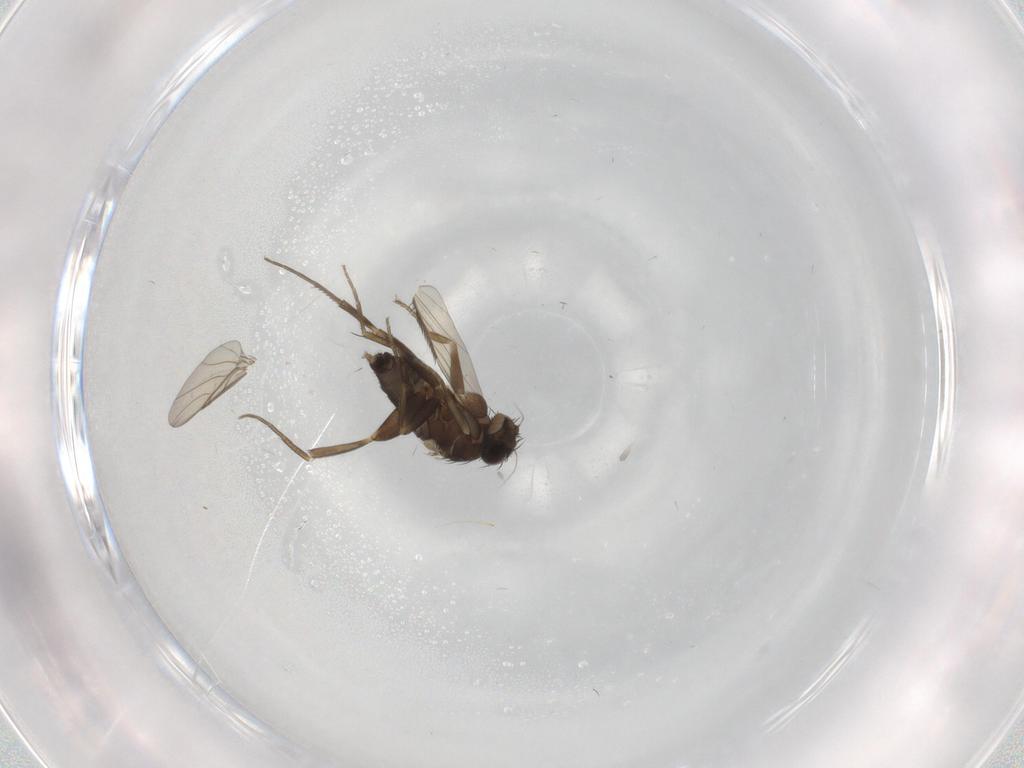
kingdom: Animalia
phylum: Arthropoda
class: Insecta
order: Diptera
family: Phoridae
